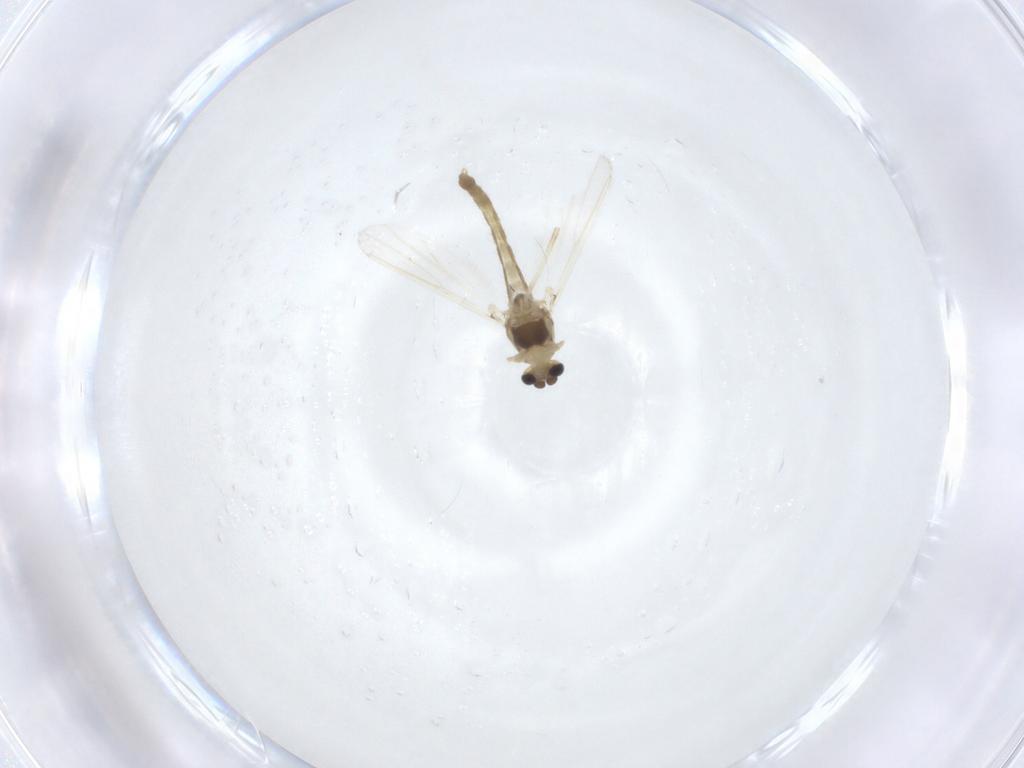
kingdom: Animalia
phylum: Arthropoda
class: Insecta
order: Diptera
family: Chironomidae
